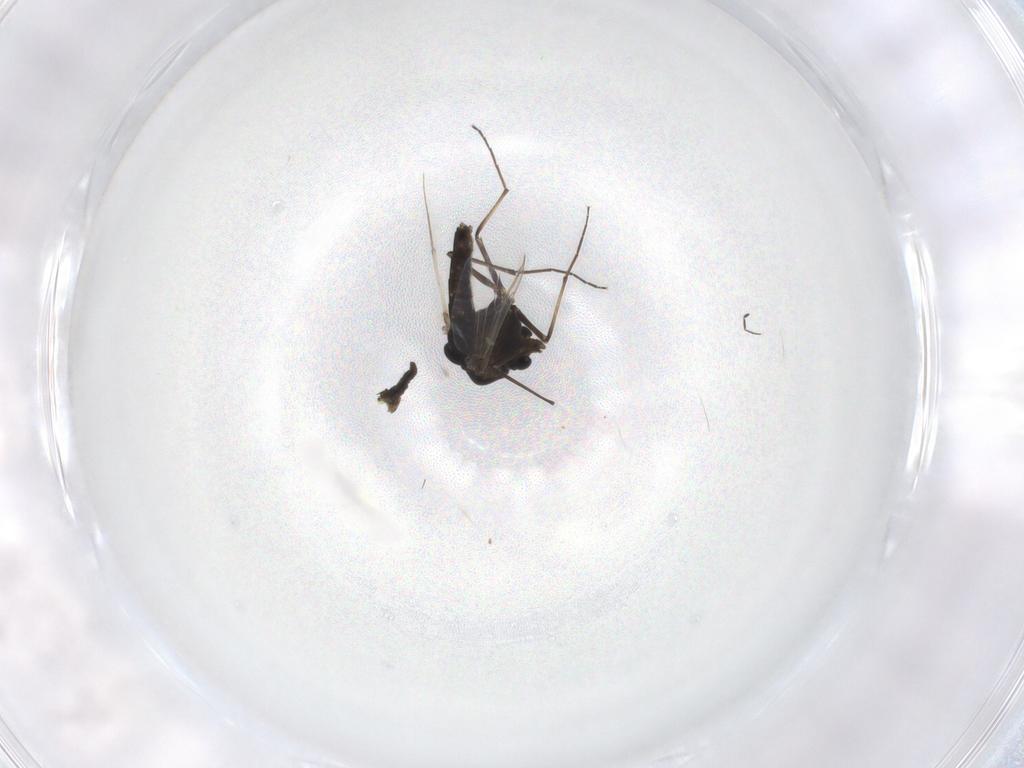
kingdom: Animalia
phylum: Arthropoda
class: Insecta
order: Diptera
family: Chironomidae
